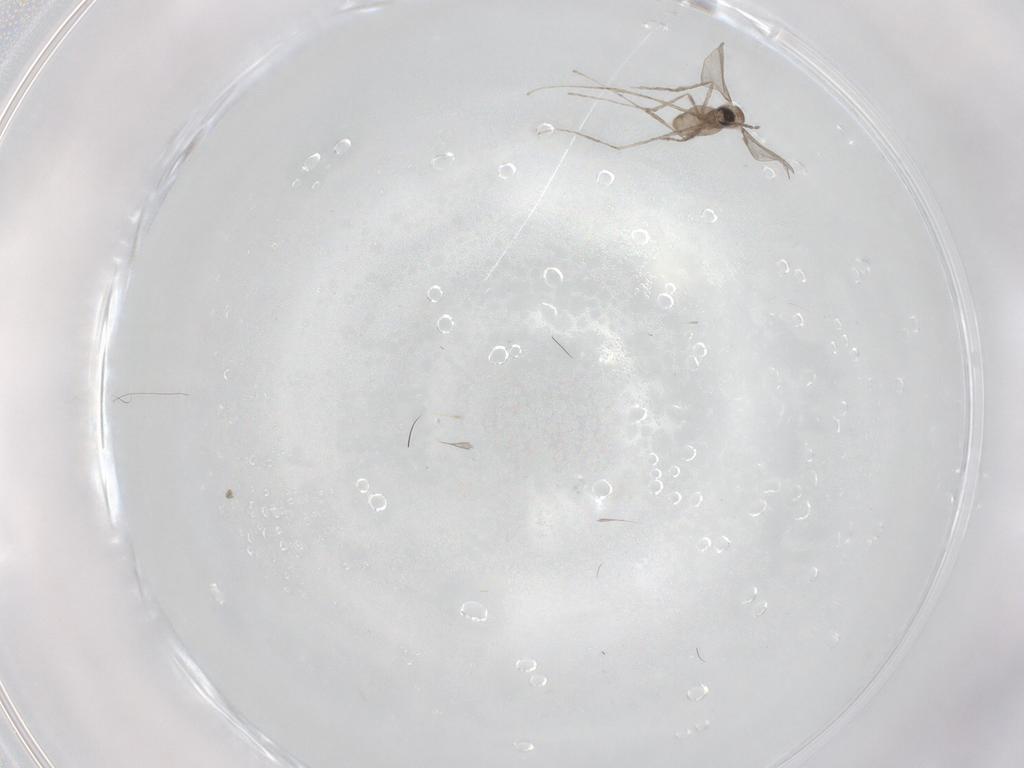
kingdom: Animalia
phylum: Arthropoda
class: Insecta
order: Diptera
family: Cecidomyiidae
